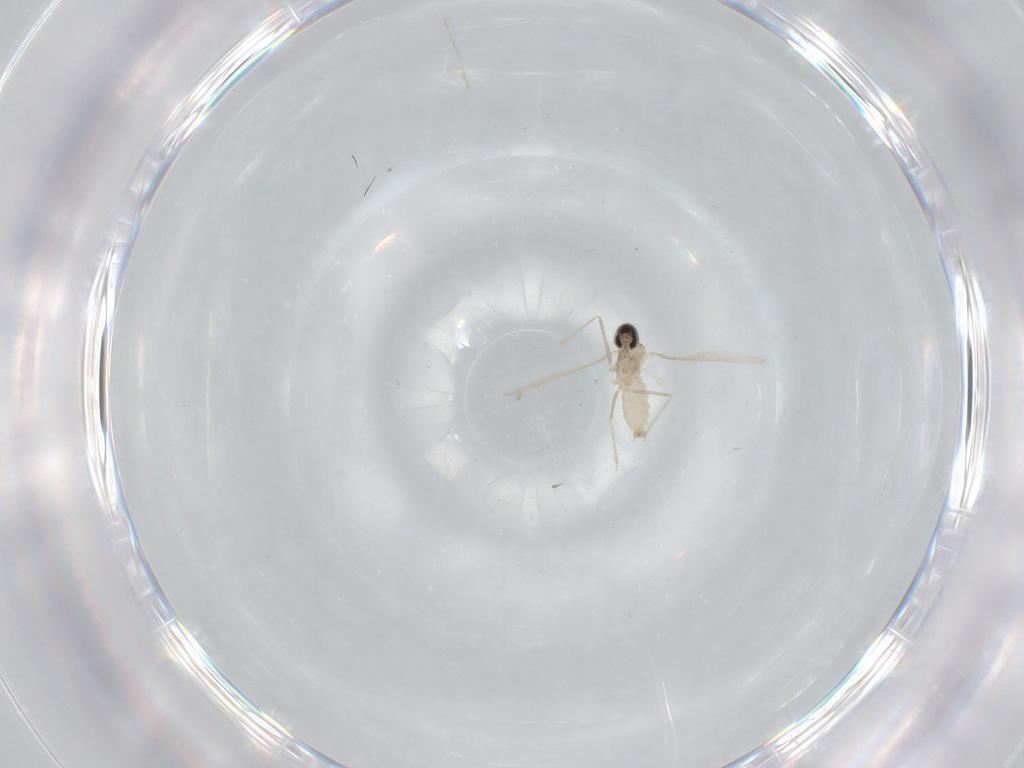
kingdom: Animalia
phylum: Arthropoda
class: Insecta
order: Diptera
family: Cecidomyiidae
